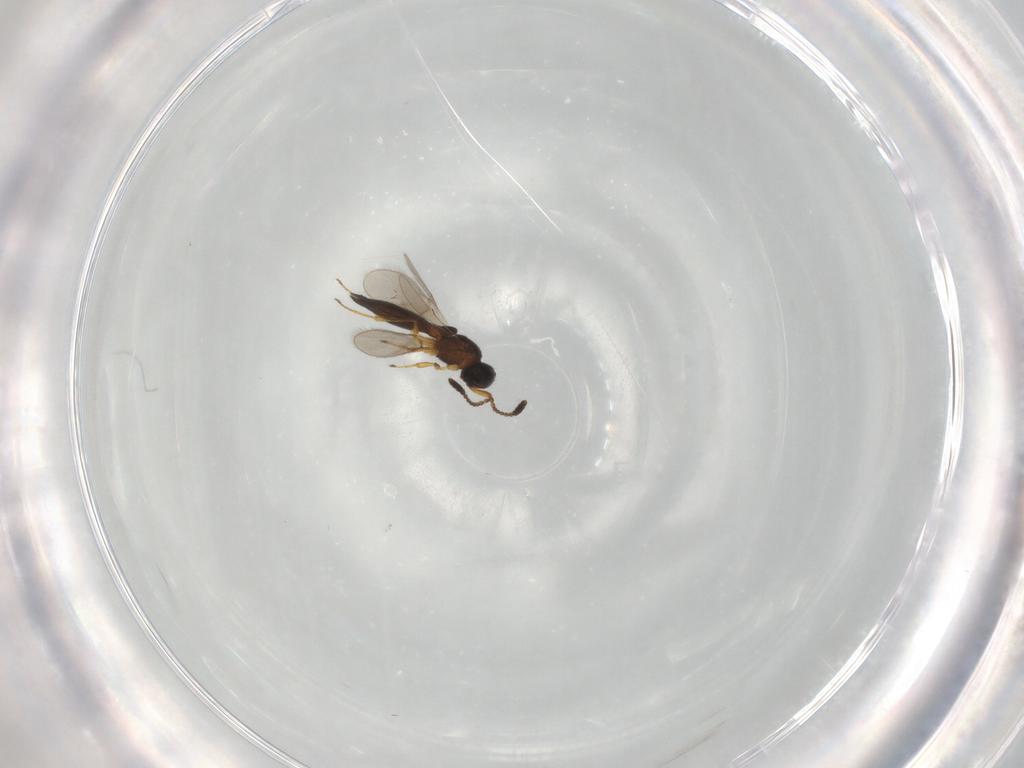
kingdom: Animalia
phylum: Arthropoda
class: Insecta
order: Hymenoptera
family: Scelionidae
